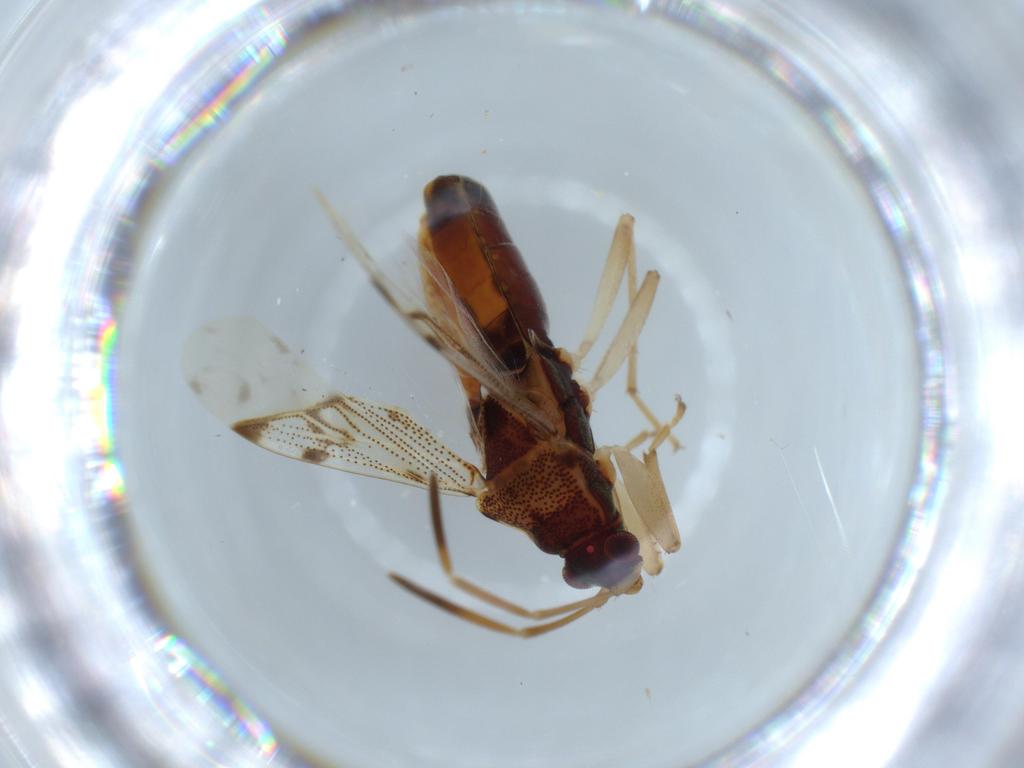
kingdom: Animalia
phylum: Arthropoda
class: Insecta
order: Hemiptera
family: Rhyparochromidae
